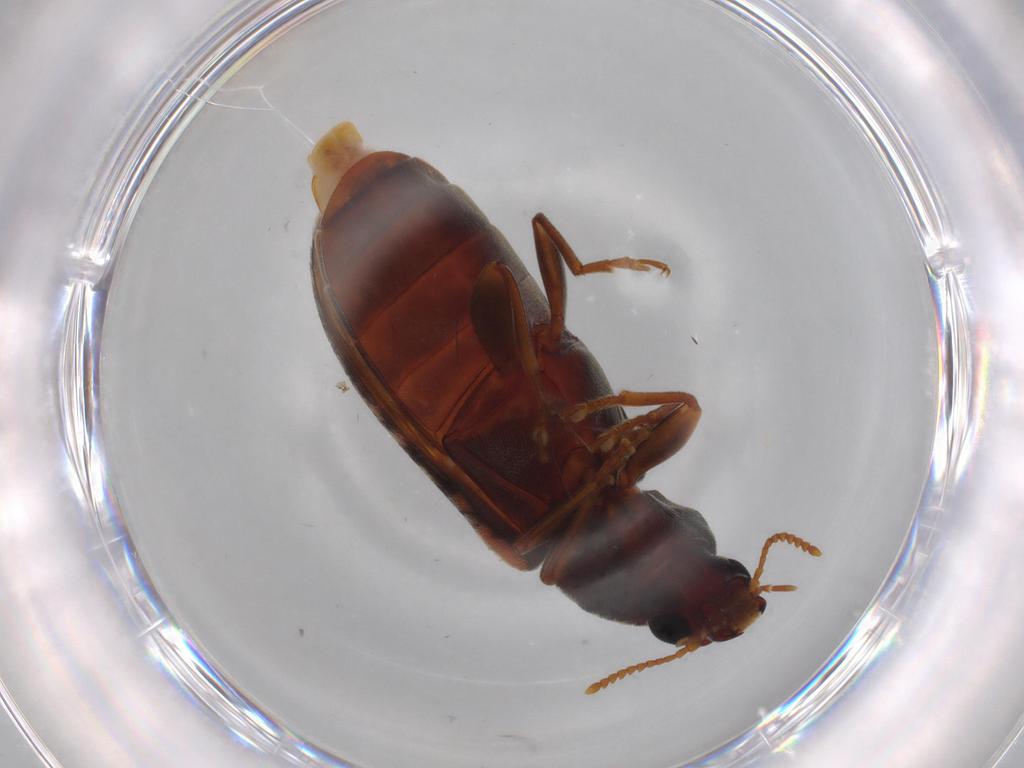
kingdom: Animalia
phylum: Arthropoda
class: Insecta
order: Coleoptera
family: Mycteridae
